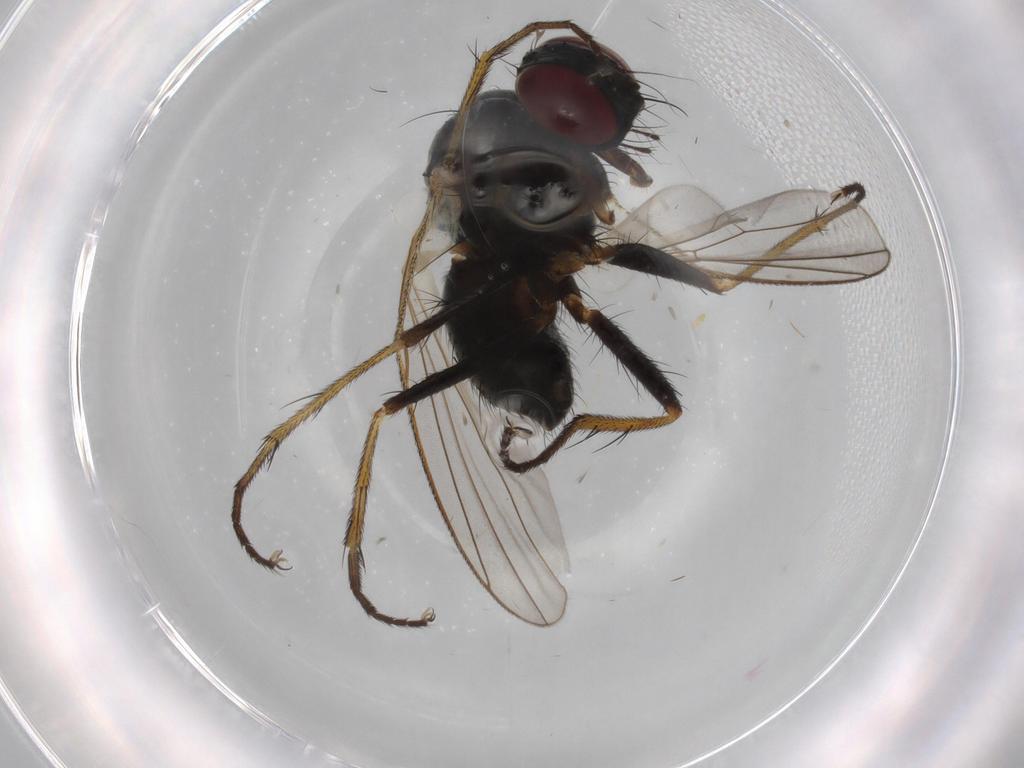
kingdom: Animalia
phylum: Arthropoda
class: Insecta
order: Diptera
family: Muscidae
